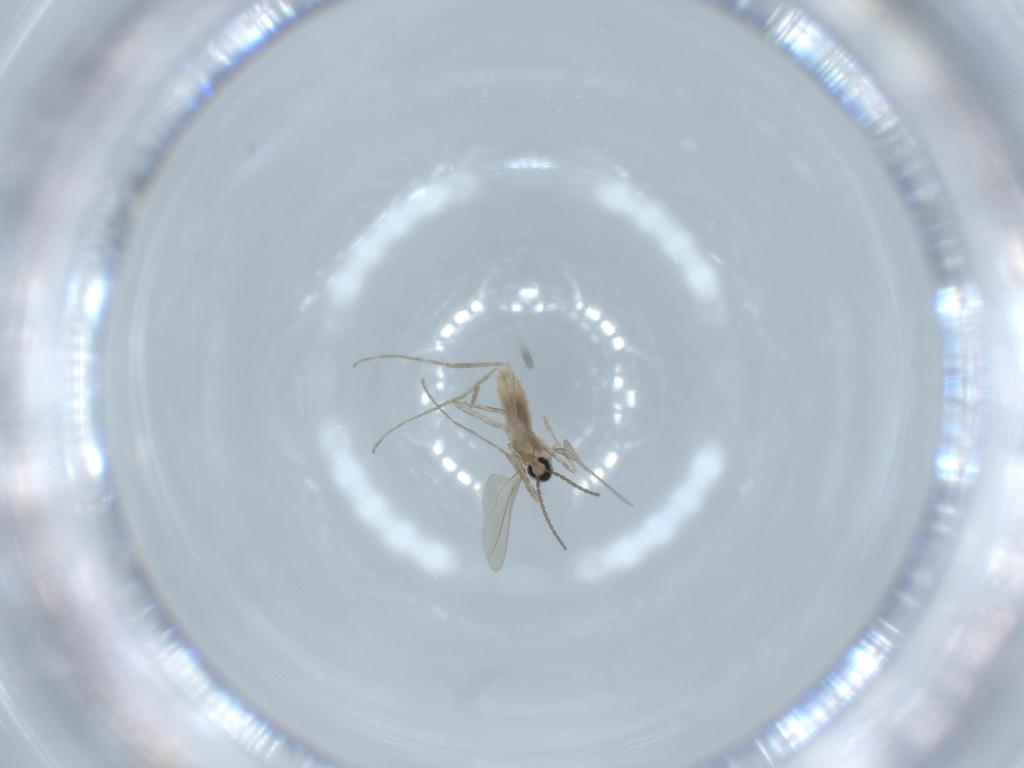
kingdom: Animalia
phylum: Arthropoda
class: Insecta
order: Diptera
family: Cecidomyiidae
